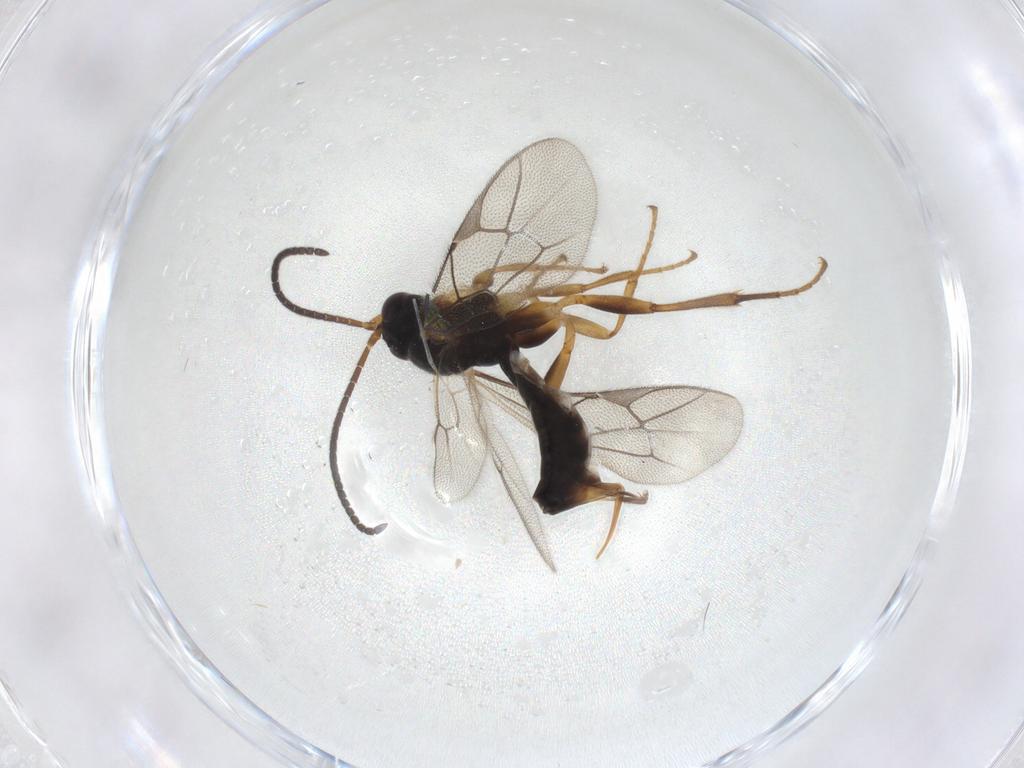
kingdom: Animalia
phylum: Arthropoda
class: Insecta
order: Hymenoptera
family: Ichneumonidae
